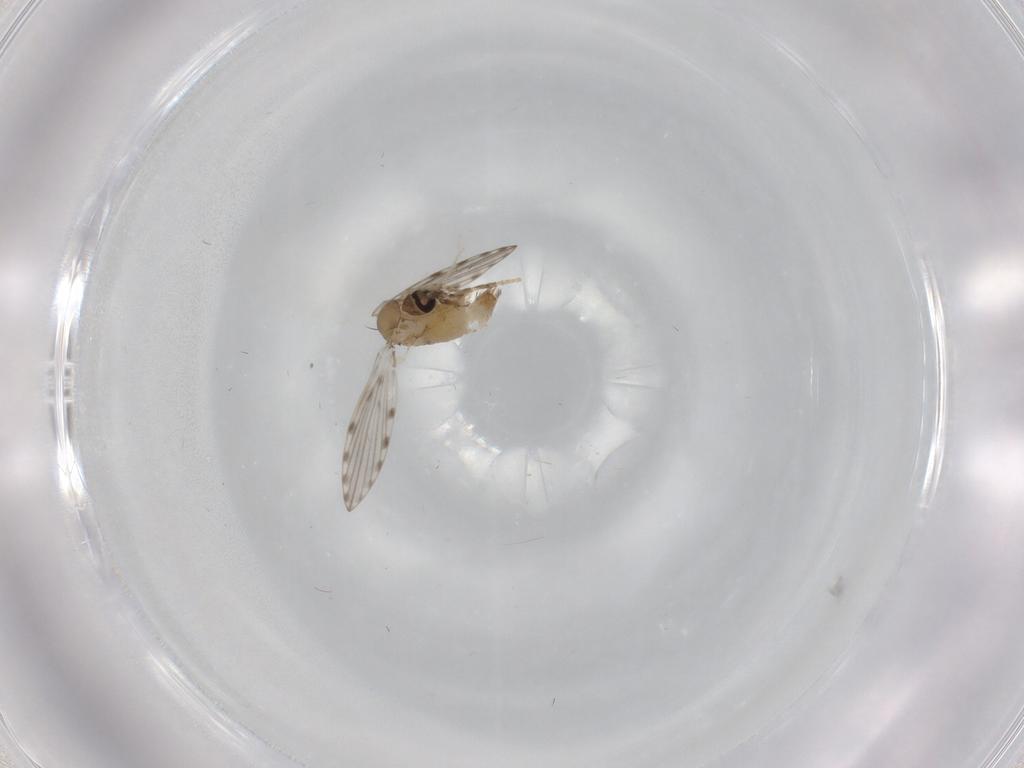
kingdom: Animalia
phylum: Arthropoda
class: Insecta
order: Diptera
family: Psychodidae
